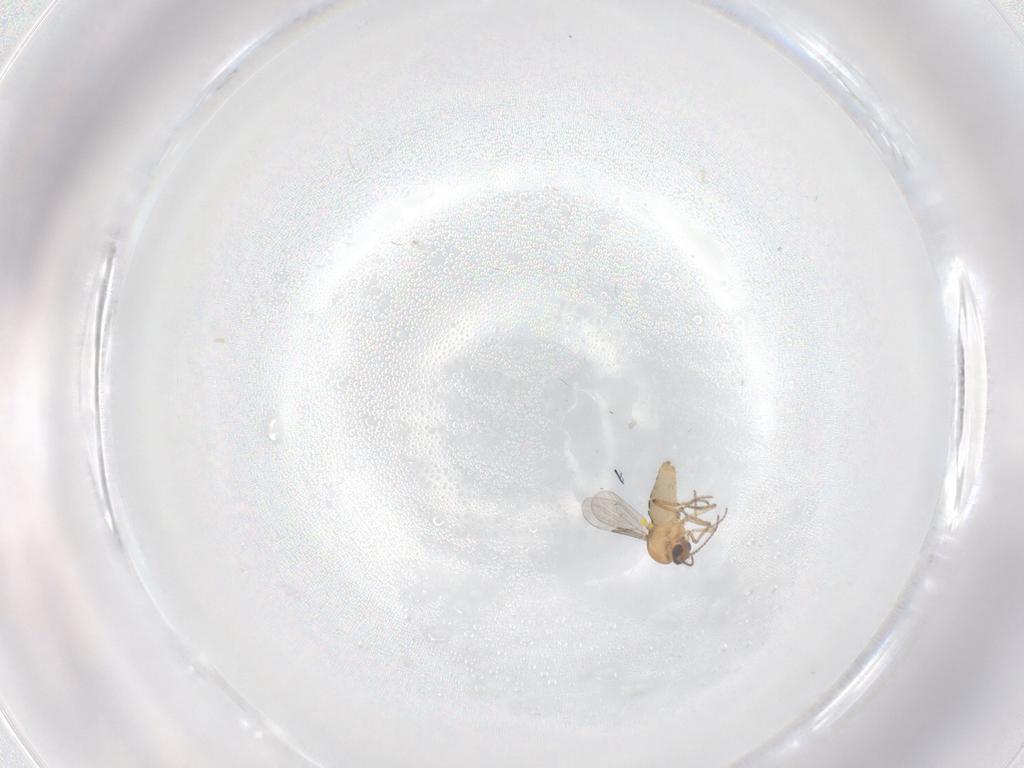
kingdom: Animalia
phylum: Arthropoda
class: Insecta
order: Diptera
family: Ceratopogonidae
